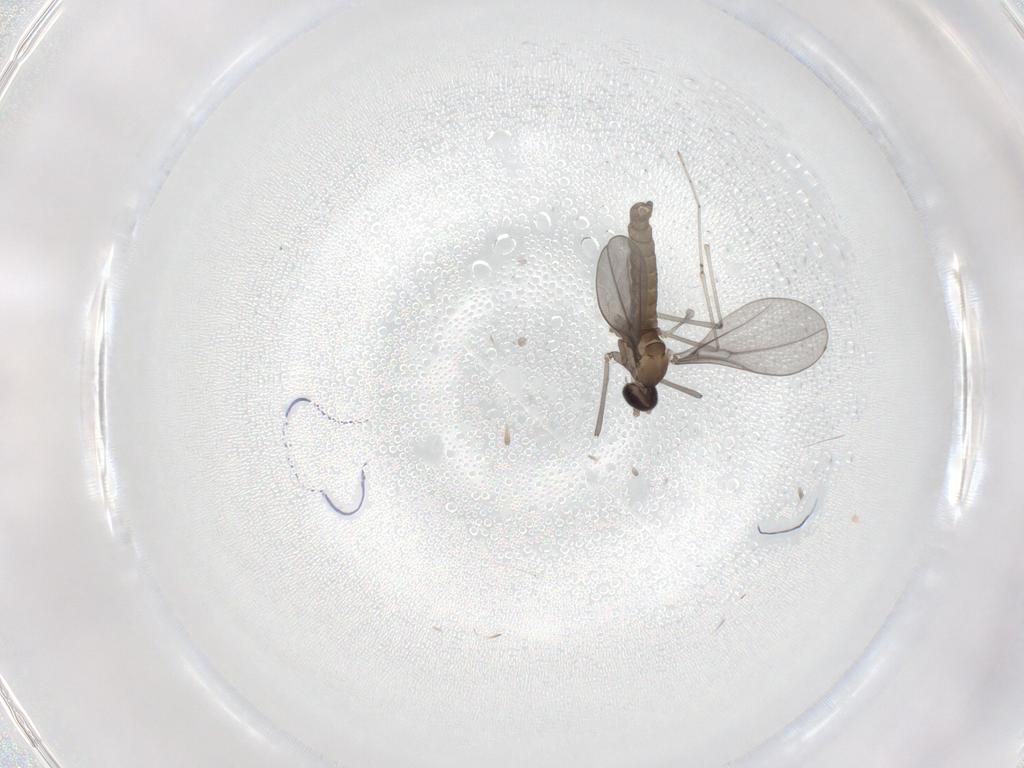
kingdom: Animalia
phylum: Arthropoda
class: Insecta
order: Diptera
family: Cecidomyiidae
